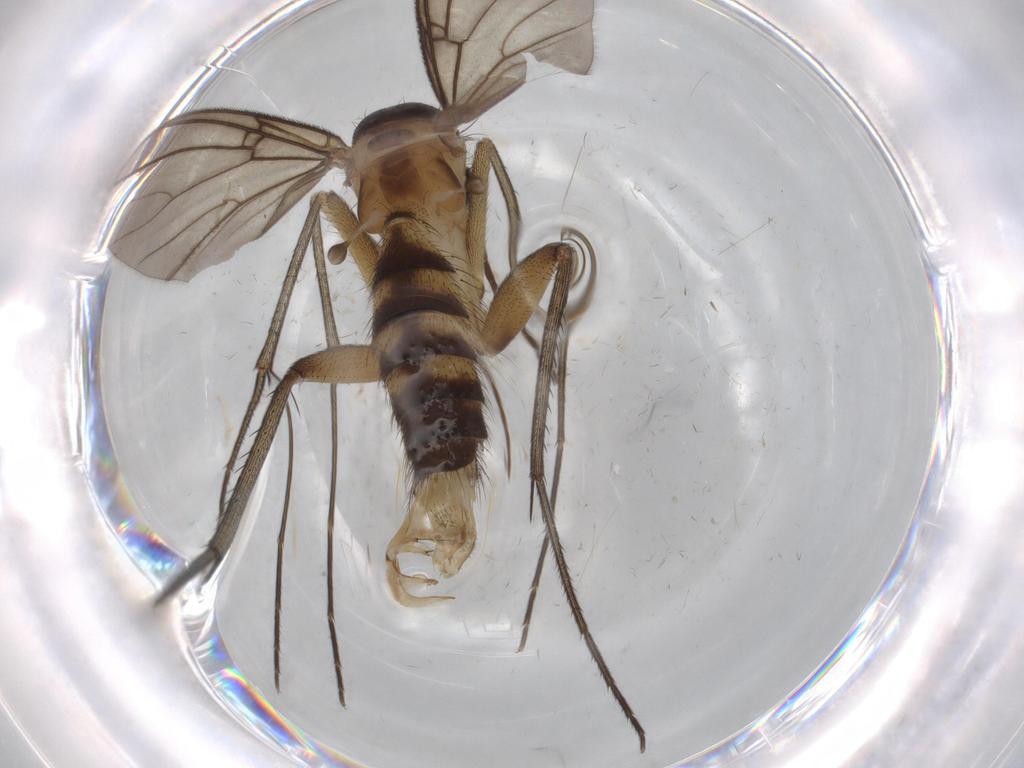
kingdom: Animalia
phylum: Arthropoda
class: Insecta
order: Diptera
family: Mycetophilidae
